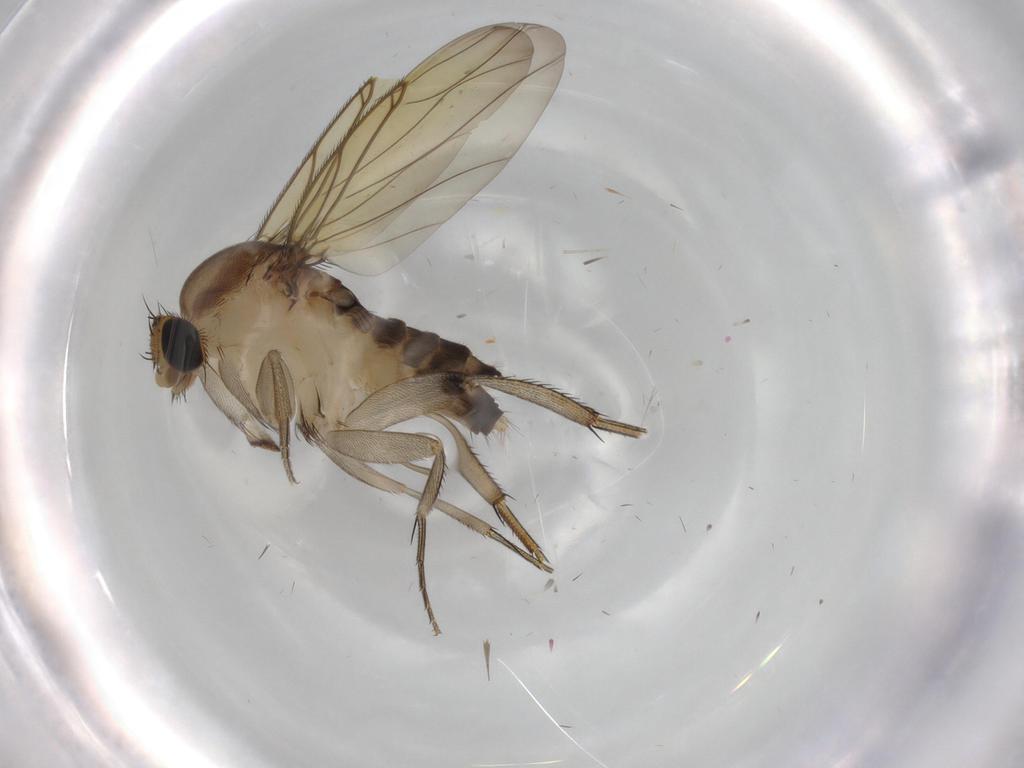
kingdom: Animalia
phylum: Arthropoda
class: Insecta
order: Diptera
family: Phoridae
